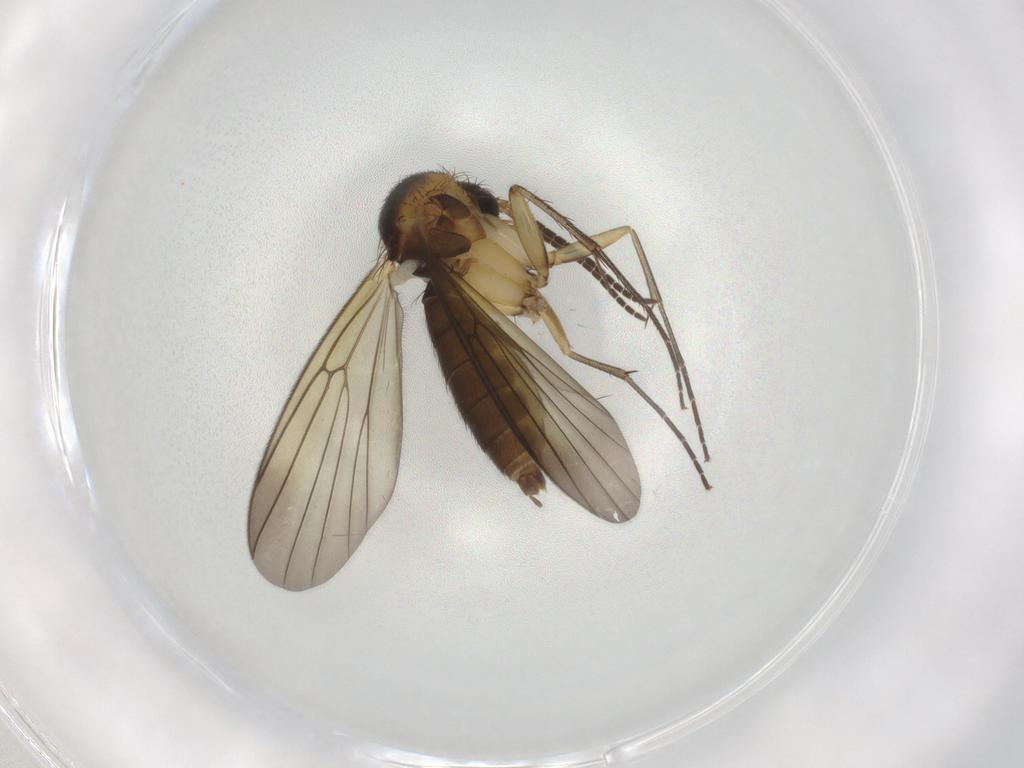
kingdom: Animalia
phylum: Arthropoda
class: Insecta
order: Diptera
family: Mycetophilidae
